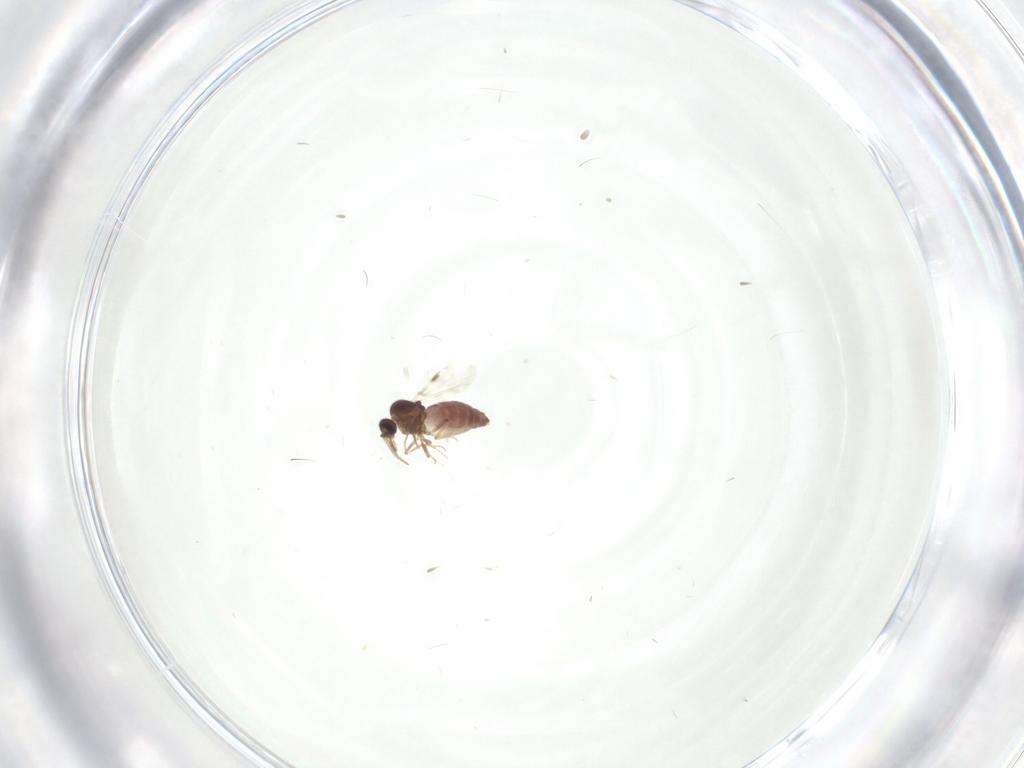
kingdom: Animalia
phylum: Arthropoda
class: Insecta
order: Diptera
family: Chironomidae
